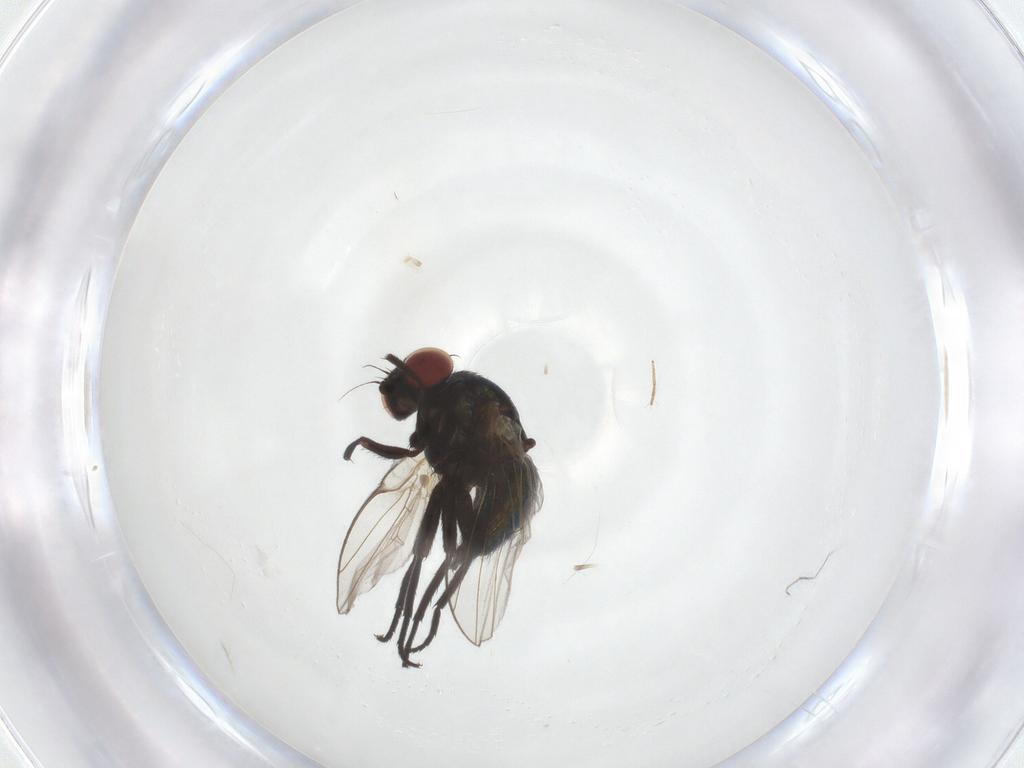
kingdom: Animalia
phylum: Arthropoda
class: Insecta
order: Diptera
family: Agromyzidae
